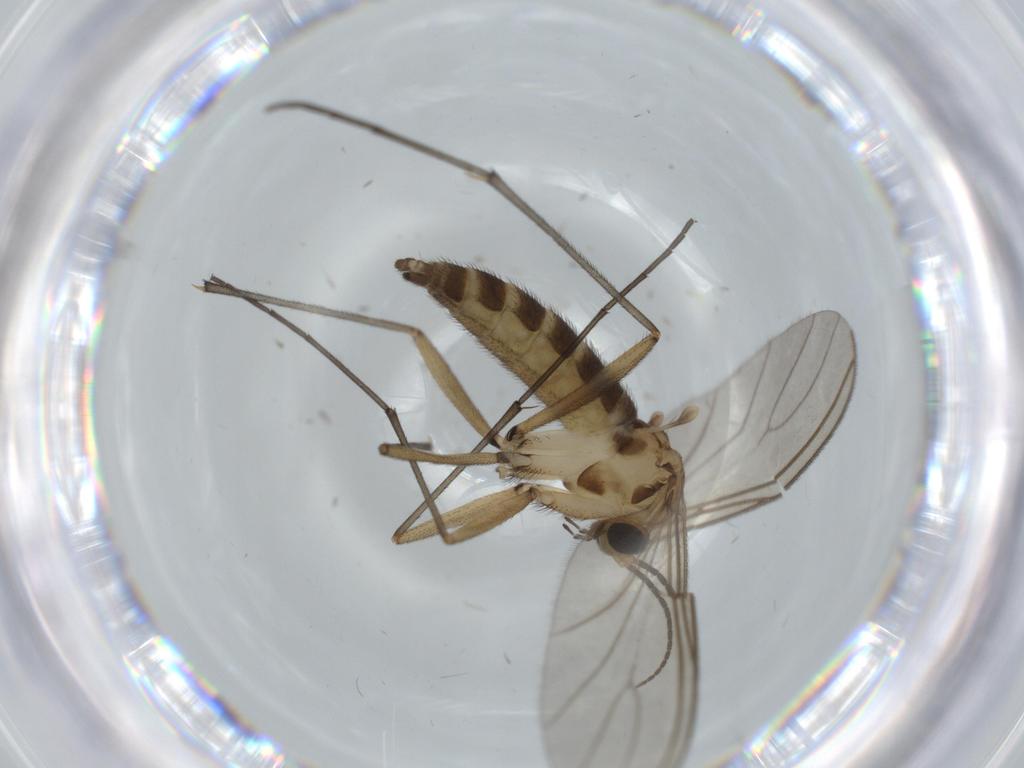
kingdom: Animalia
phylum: Arthropoda
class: Insecta
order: Diptera
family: Sciaridae
